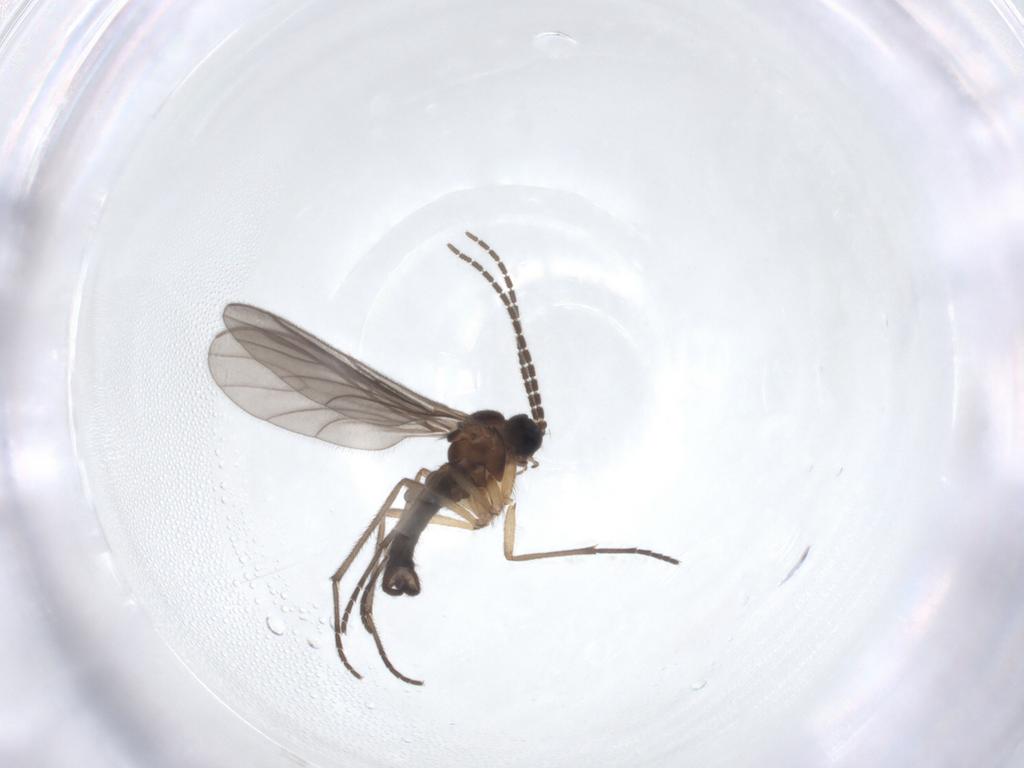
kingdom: Animalia
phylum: Arthropoda
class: Insecta
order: Diptera
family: Sciaridae
